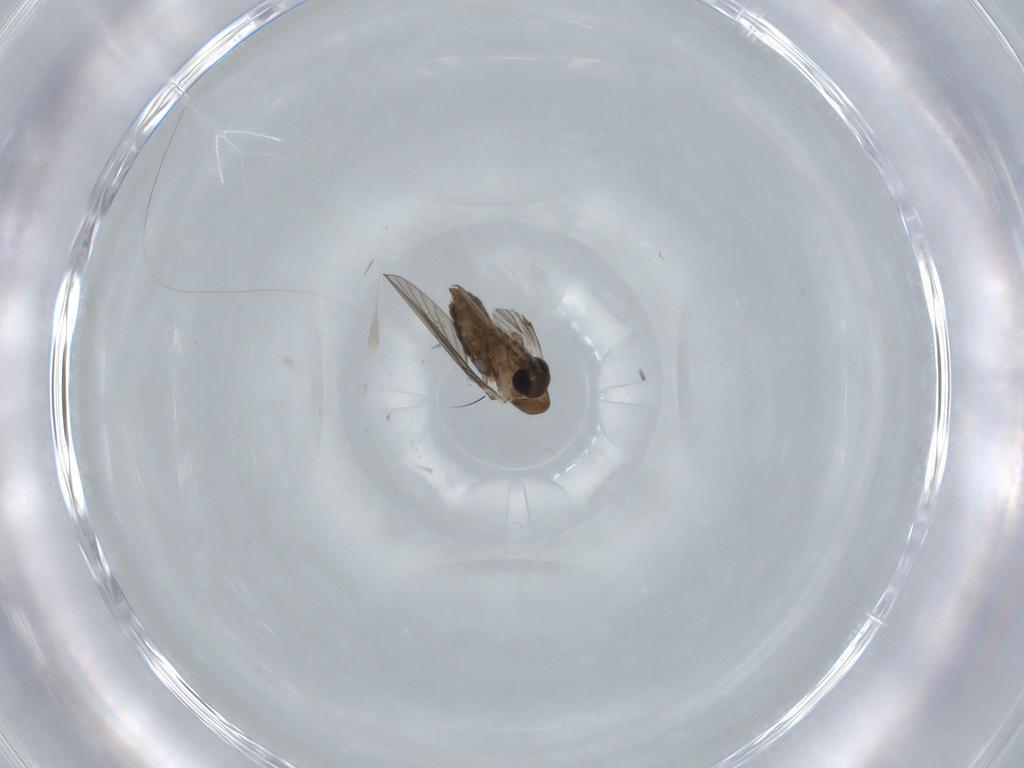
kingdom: Animalia
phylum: Arthropoda
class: Insecta
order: Diptera
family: Psychodidae
